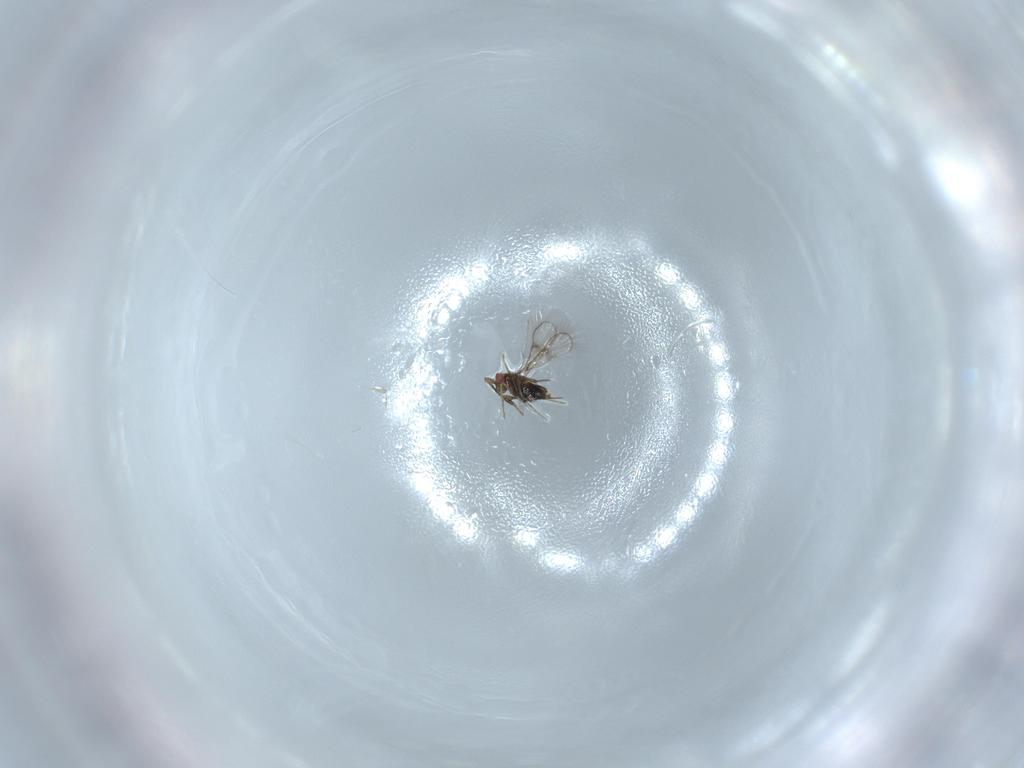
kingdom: Animalia
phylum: Arthropoda
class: Insecta
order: Hymenoptera
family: Trichogrammatidae
